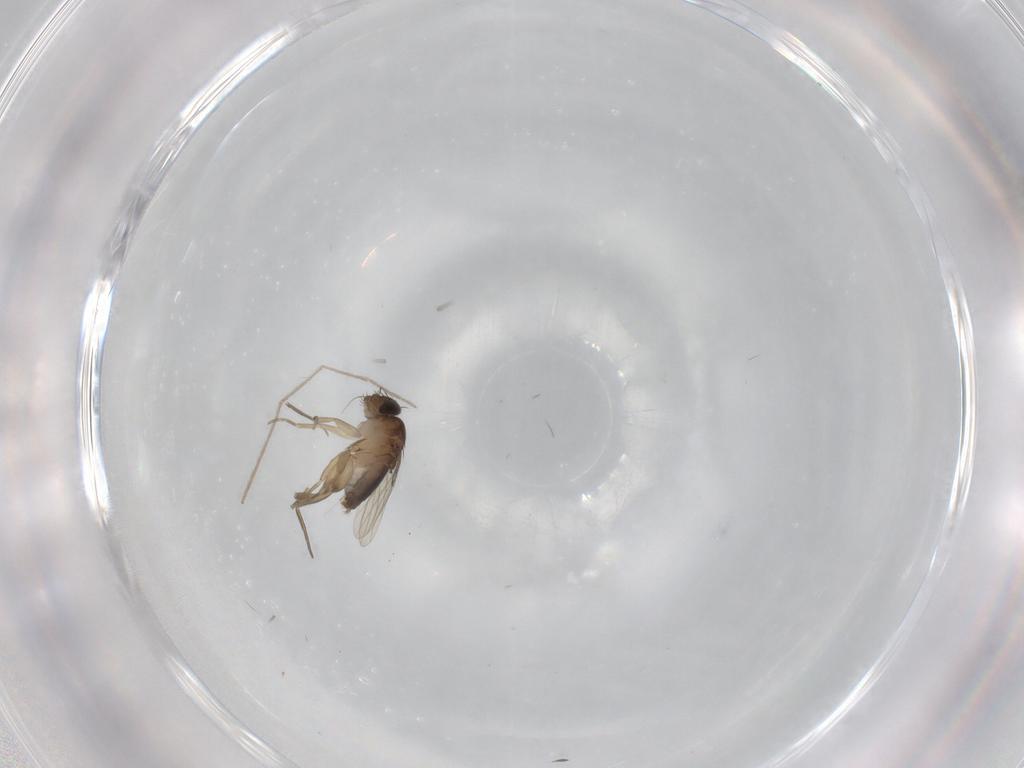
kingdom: Animalia
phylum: Arthropoda
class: Insecta
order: Diptera
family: Chironomidae
